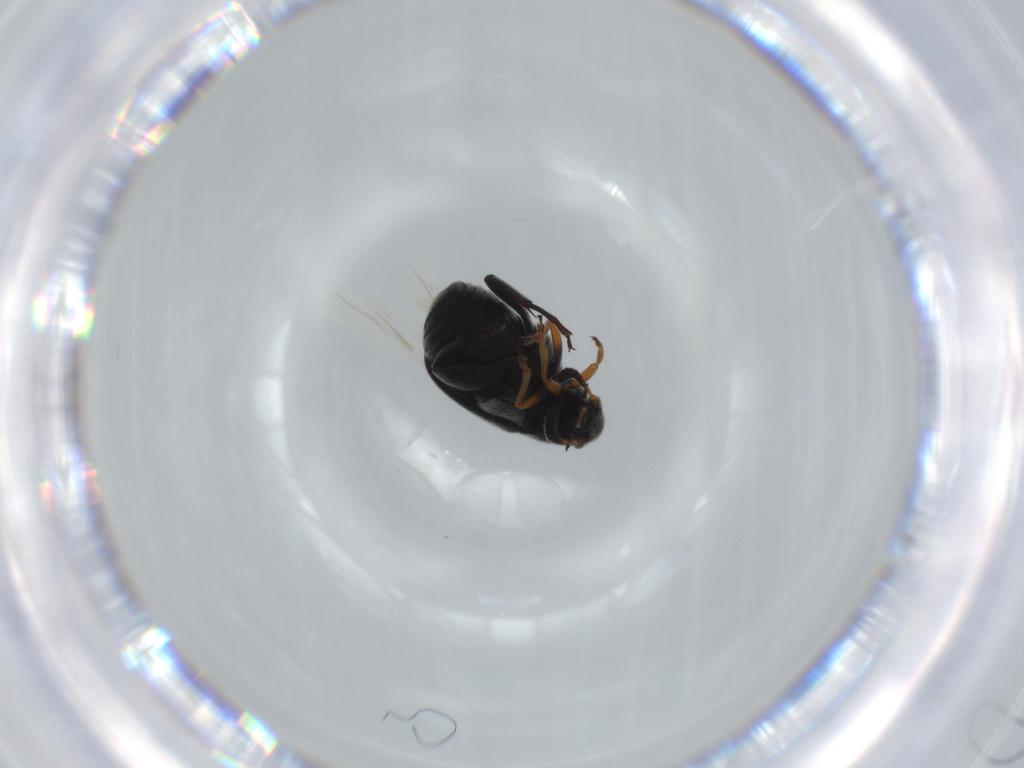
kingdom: Animalia
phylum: Arthropoda
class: Insecta
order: Coleoptera
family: Chrysomelidae
